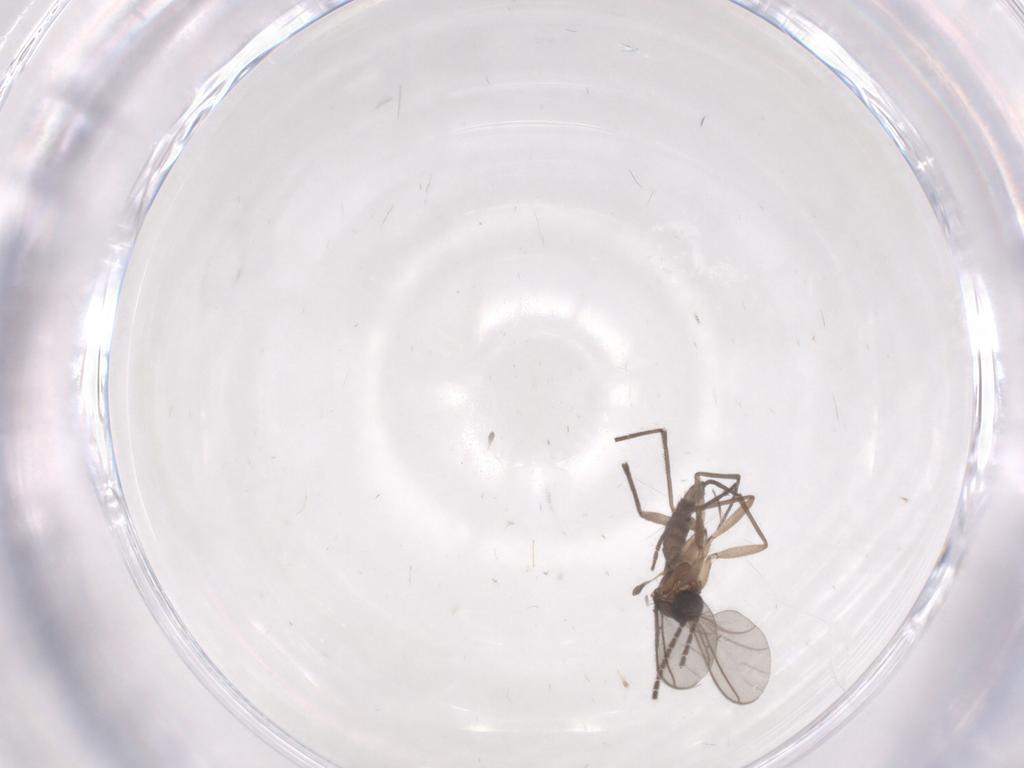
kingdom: Animalia
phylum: Arthropoda
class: Insecta
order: Diptera
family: Sciaridae
